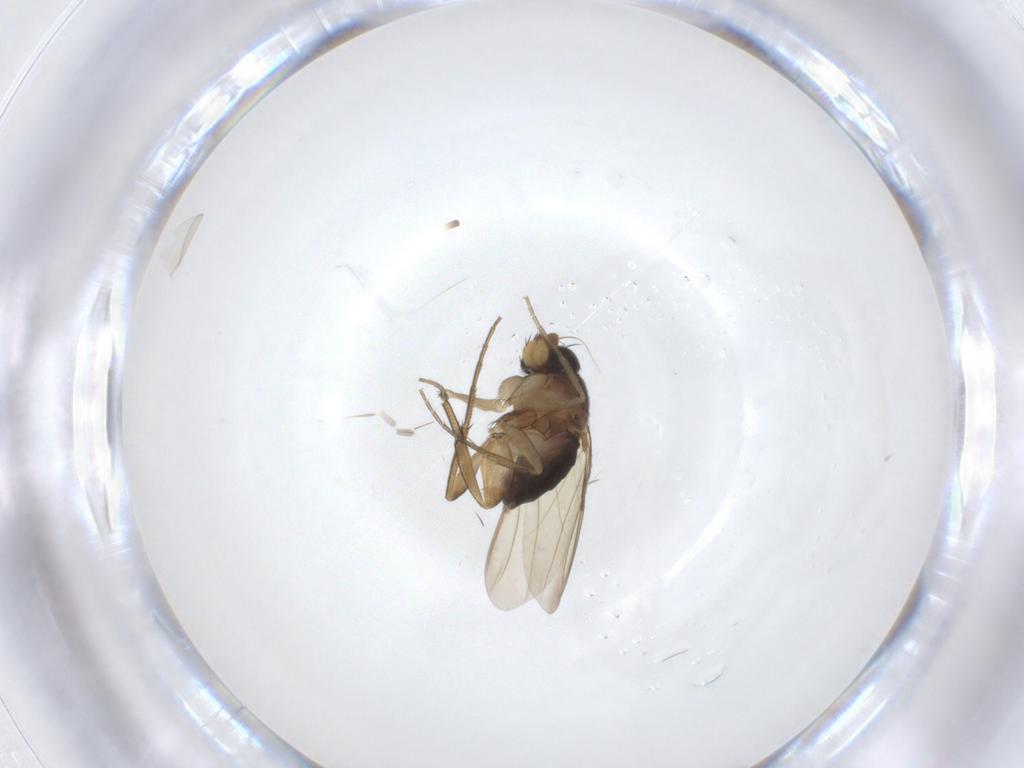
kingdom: Animalia
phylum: Arthropoda
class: Insecta
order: Diptera
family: Phoridae
